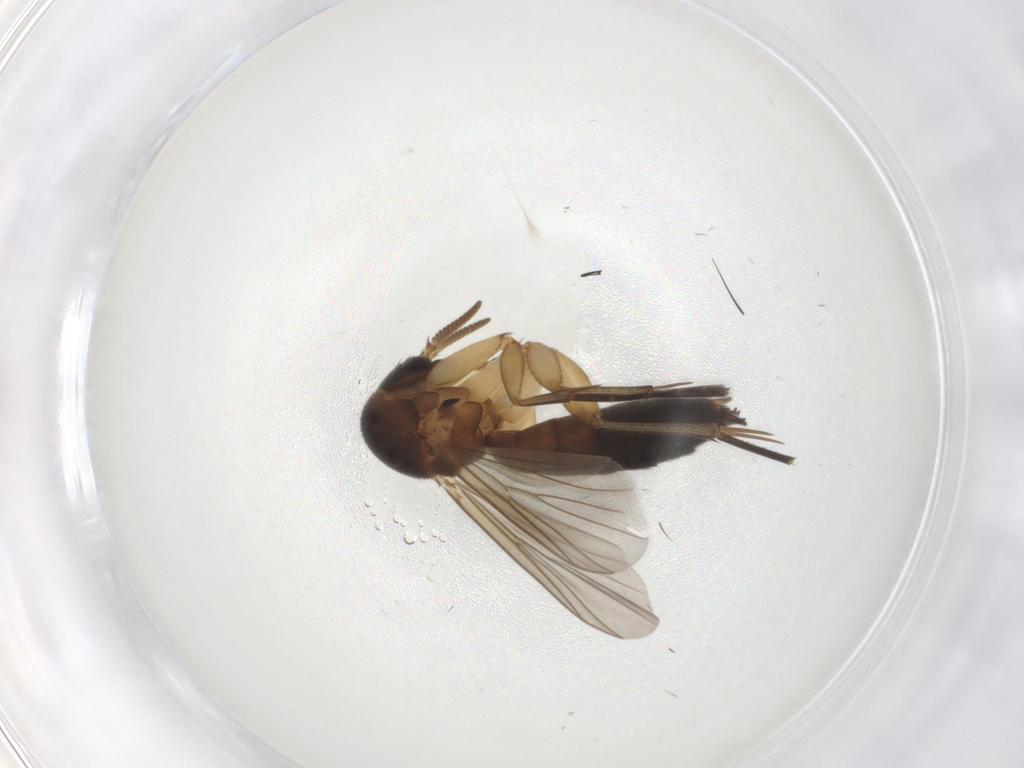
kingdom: Animalia
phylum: Arthropoda
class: Insecta
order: Diptera
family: Mycetophilidae
